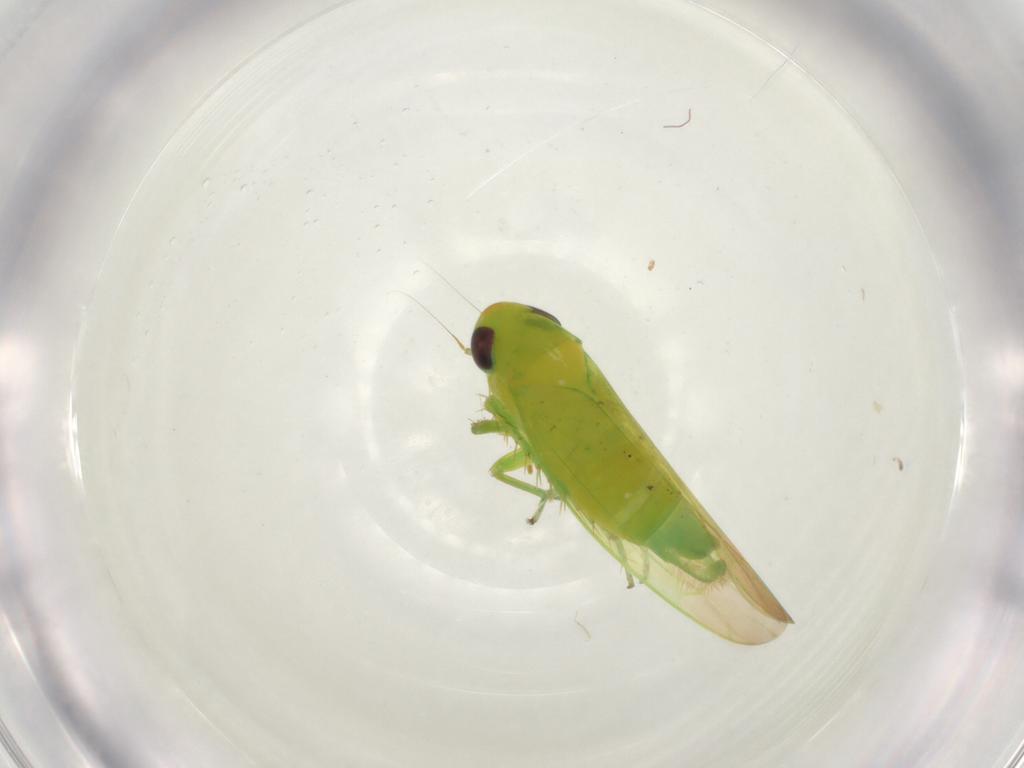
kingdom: Animalia
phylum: Arthropoda
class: Insecta
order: Hemiptera
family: Cicadellidae
